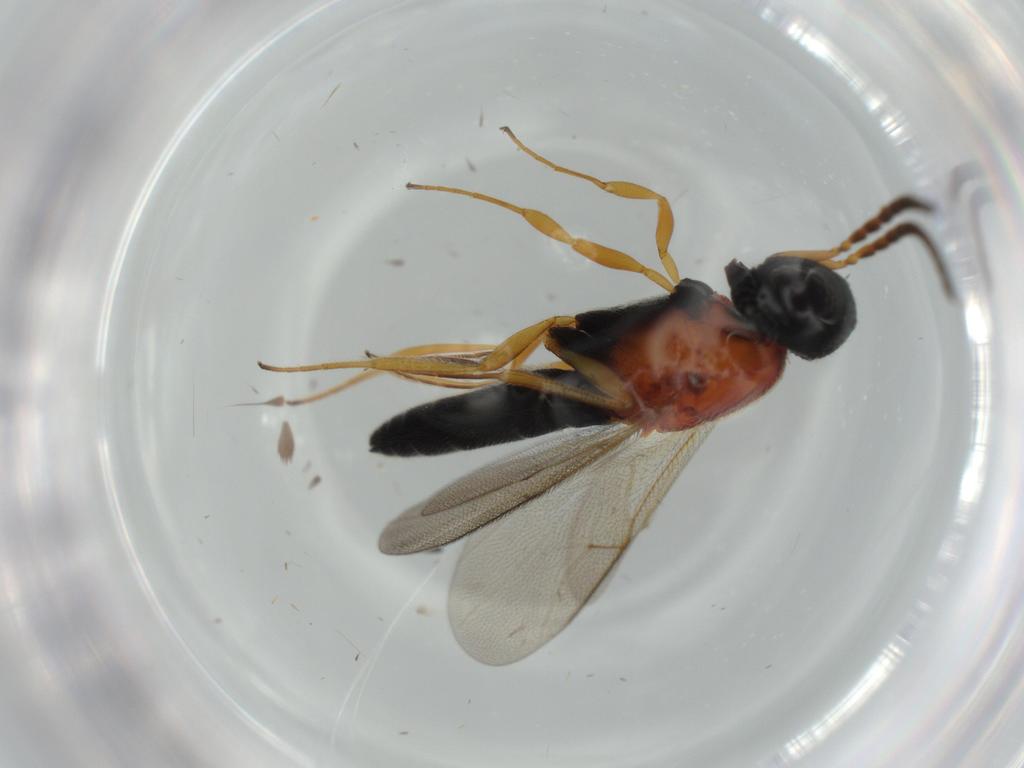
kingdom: Animalia
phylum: Arthropoda
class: Insecta
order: Hymenoptera
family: Scelionidae
